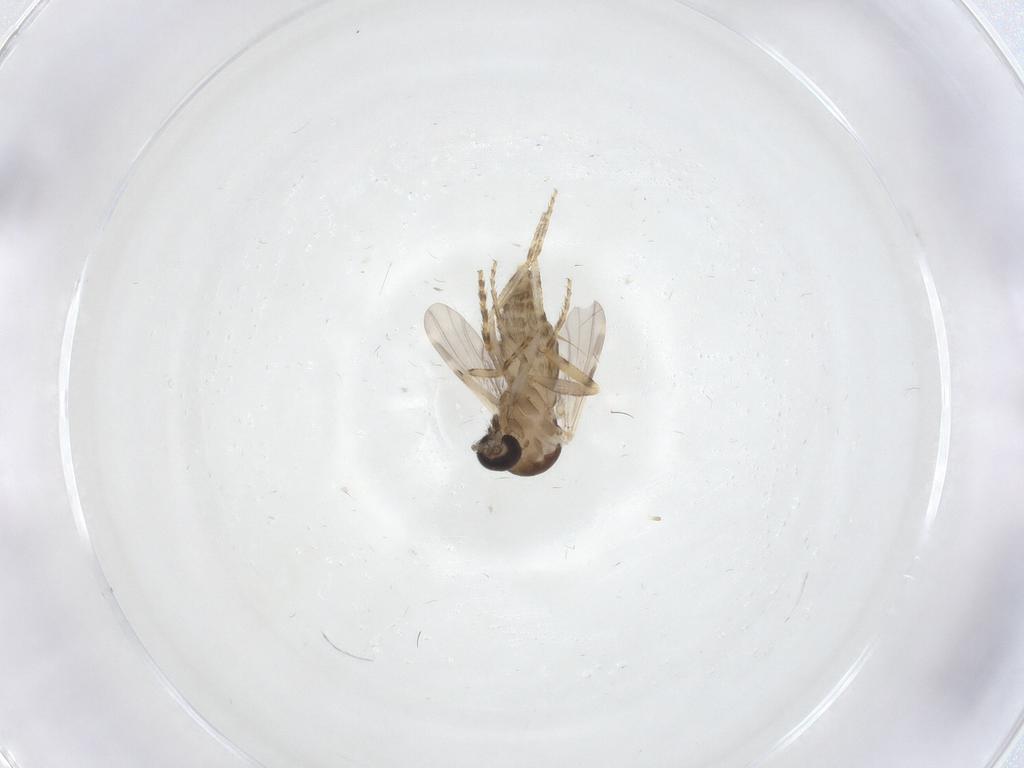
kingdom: Animalia
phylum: Arthropoda
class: Insecta
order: Diptera
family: Ceratopogonidae
